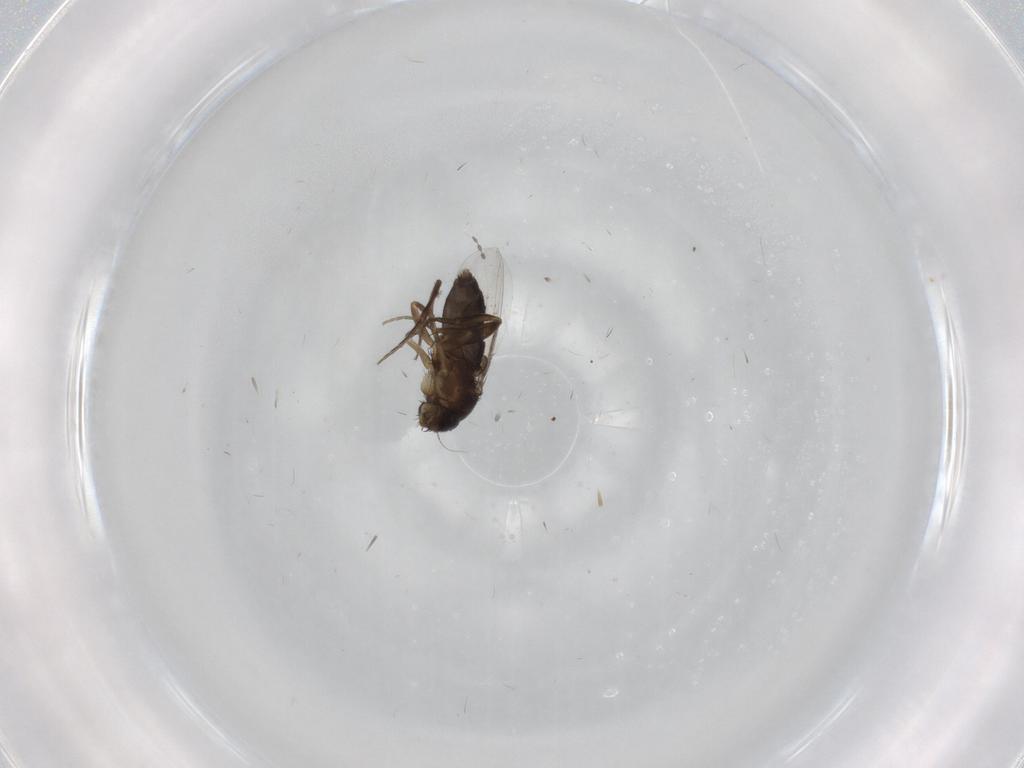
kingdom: Animalia
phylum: Arthropoda
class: Insecta
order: Diptera
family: Phoridae
